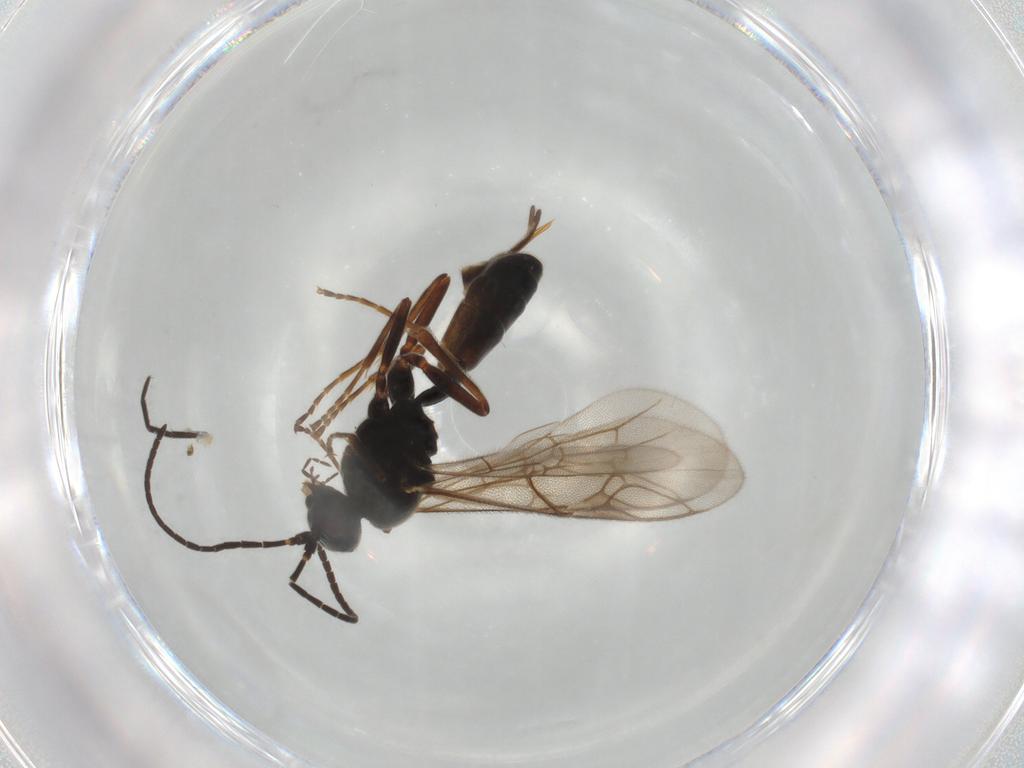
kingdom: Animalia
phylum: Arthropoda
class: Insecta
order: Hymenoptera
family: Ichneumonidae
